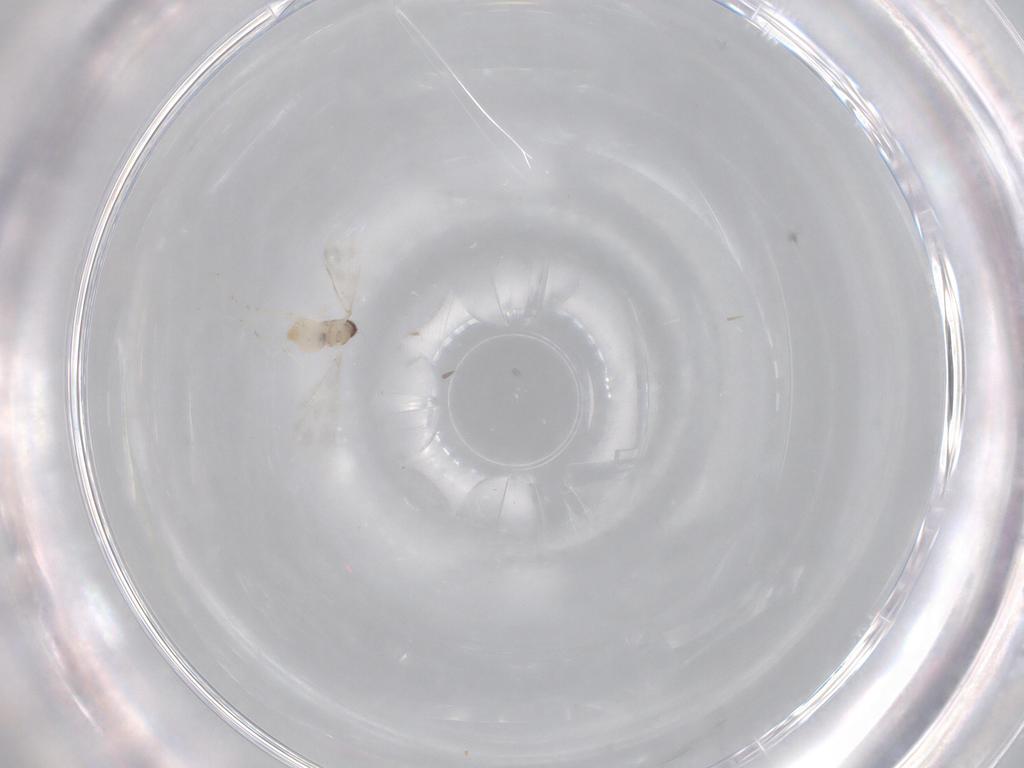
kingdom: Animalia
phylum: Arthropoda
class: Insecta
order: Diptera
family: Cecidomyiidae
